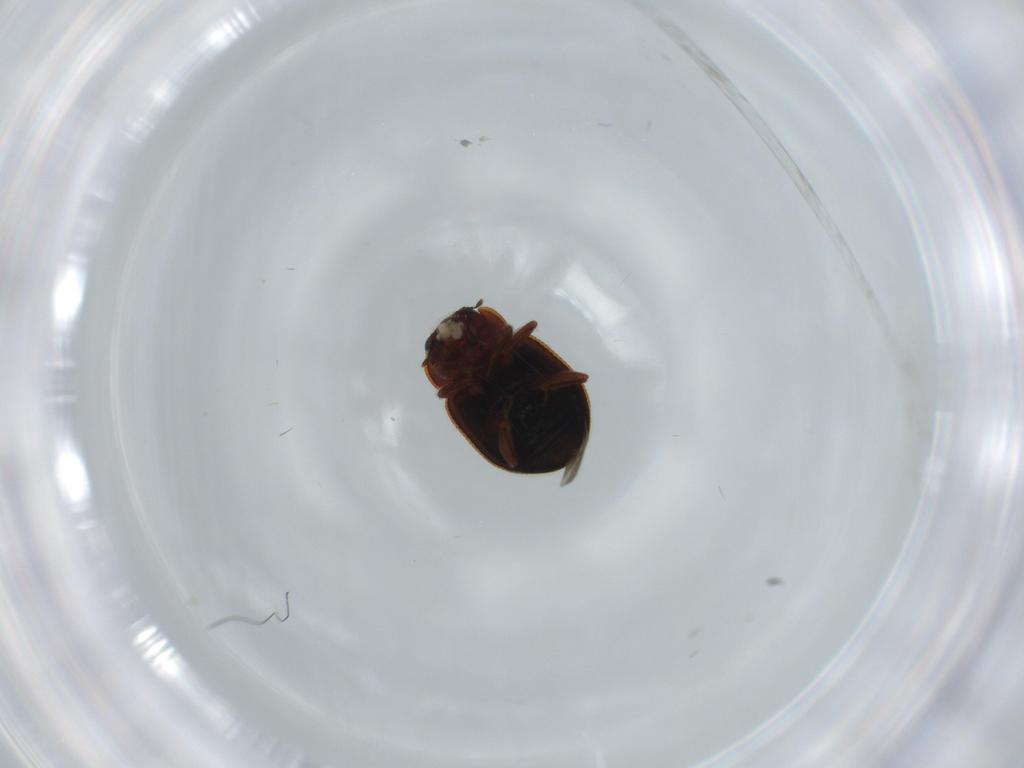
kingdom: Animalia
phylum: Arthropoda
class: Insecta
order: Coleoptera
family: Coccinellidae
